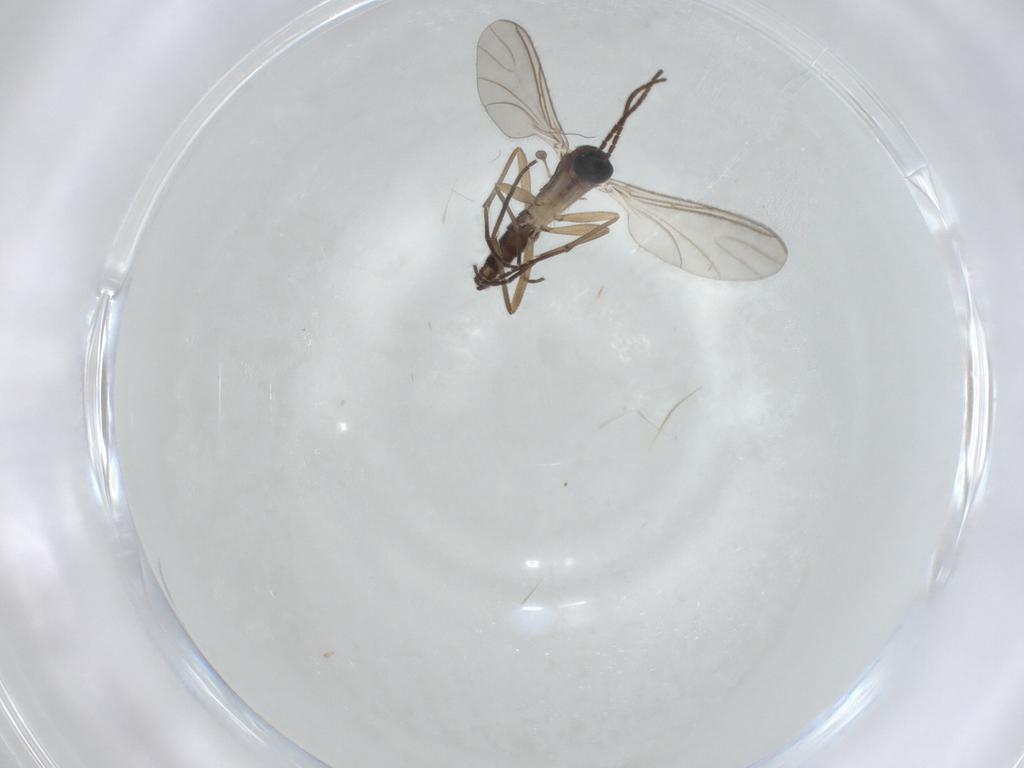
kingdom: Animalia
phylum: Arthropoda
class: Insecta
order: Diptera
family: Sciaridae
